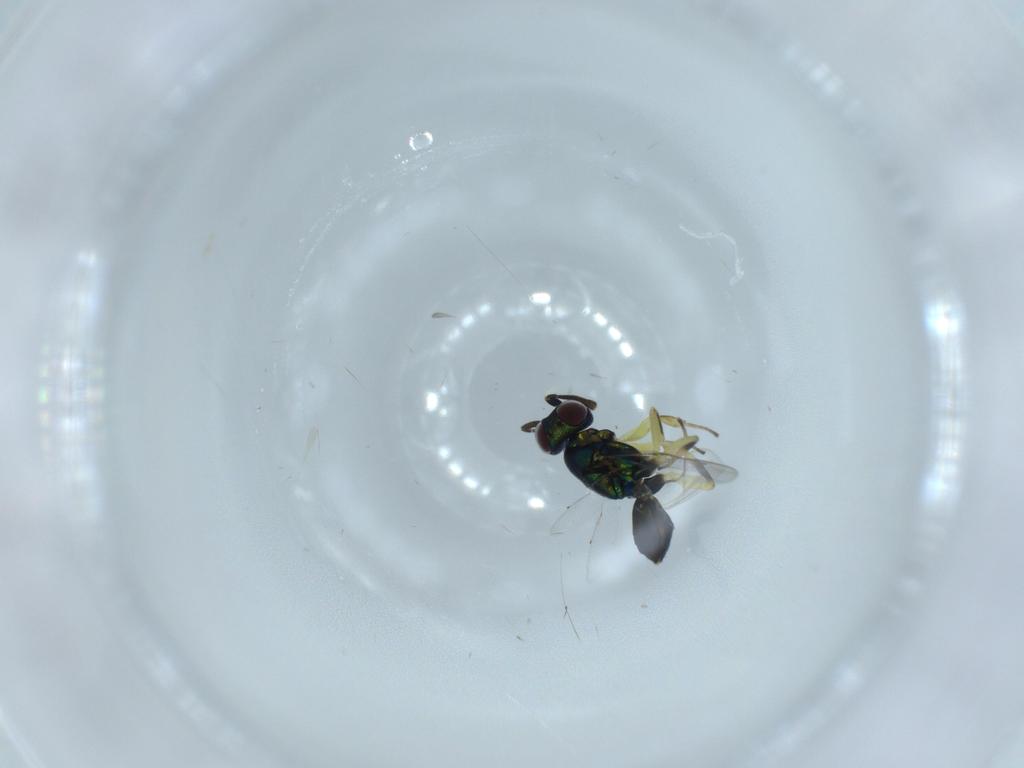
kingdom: Animalia
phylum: Arthropoda
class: Insecta
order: Hymenoptera
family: Eupelmidae
